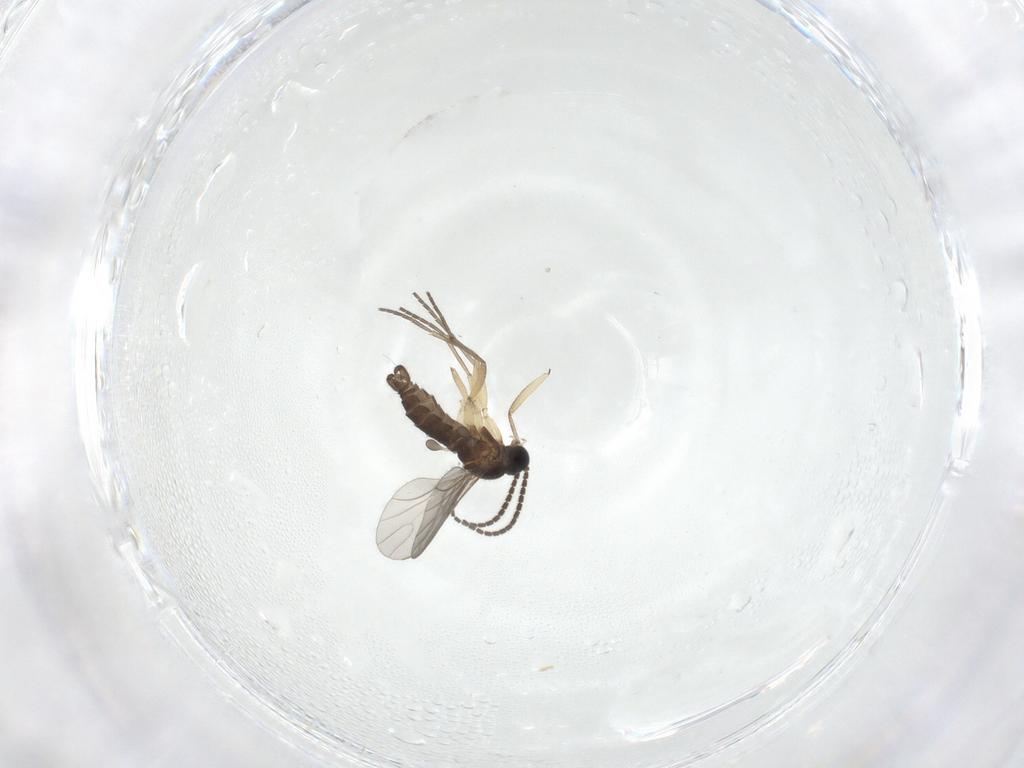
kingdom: Animalia
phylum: Arthropoda
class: Insecta
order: Diptera
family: Sciaridae
